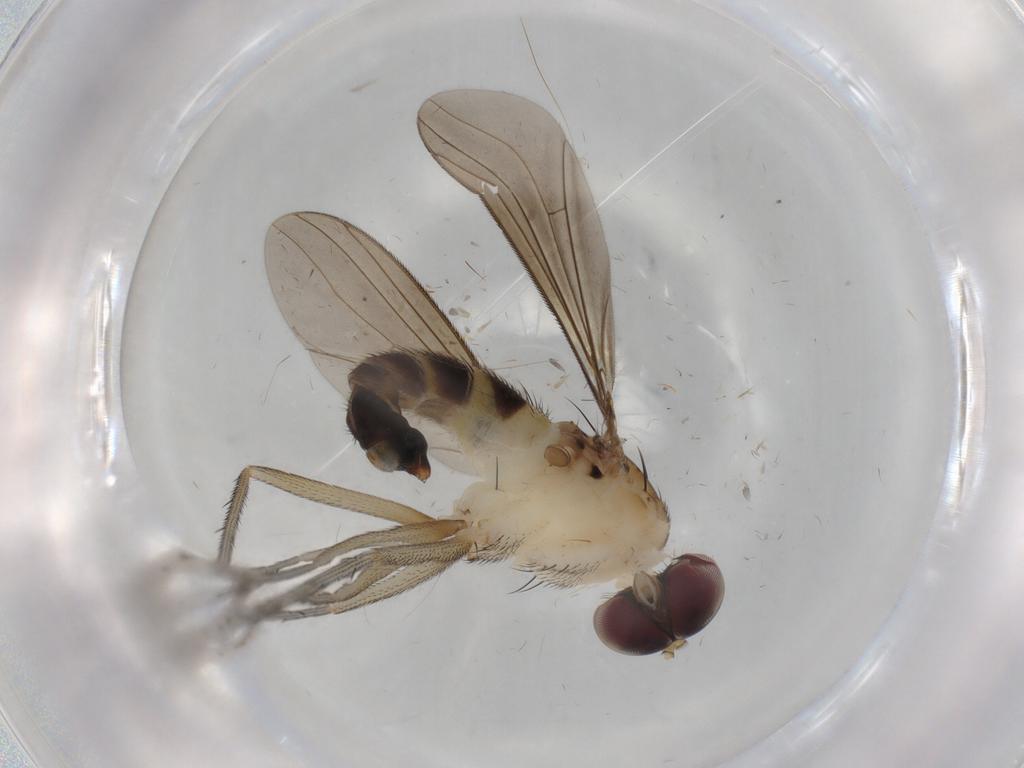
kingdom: Animalia
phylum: Arthropoda
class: Insecta
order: Diptera
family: Psychodidae
